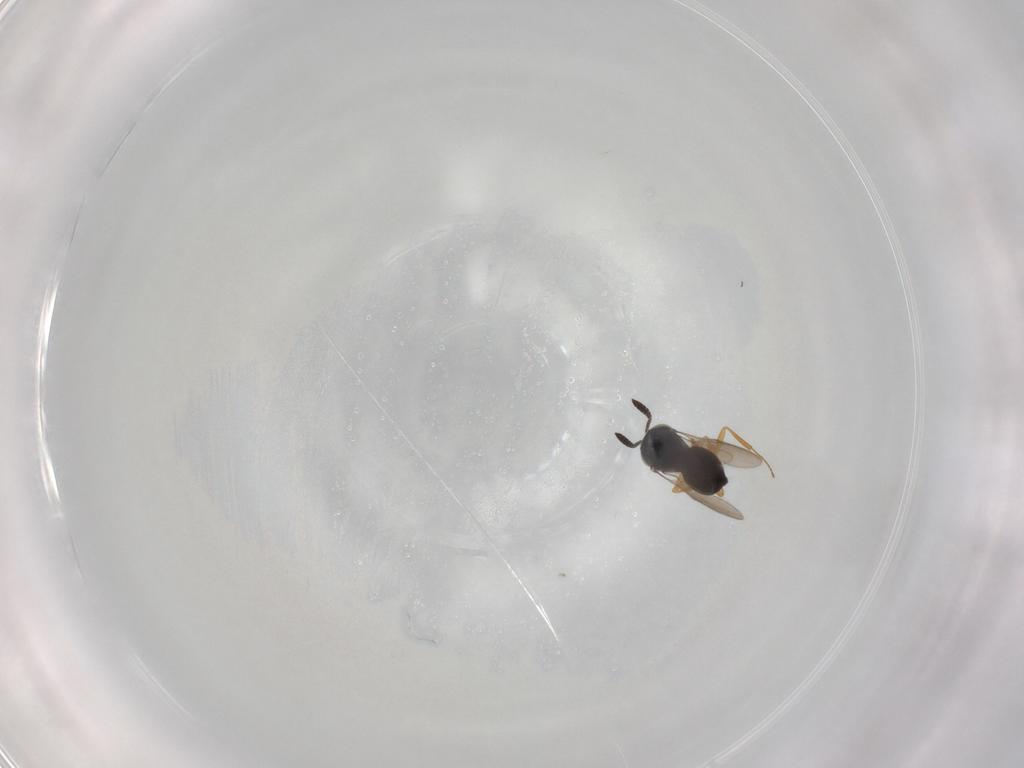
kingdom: Animalia
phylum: Arthropoda
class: Insecta
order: Hymenoptera
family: Scelionidae
